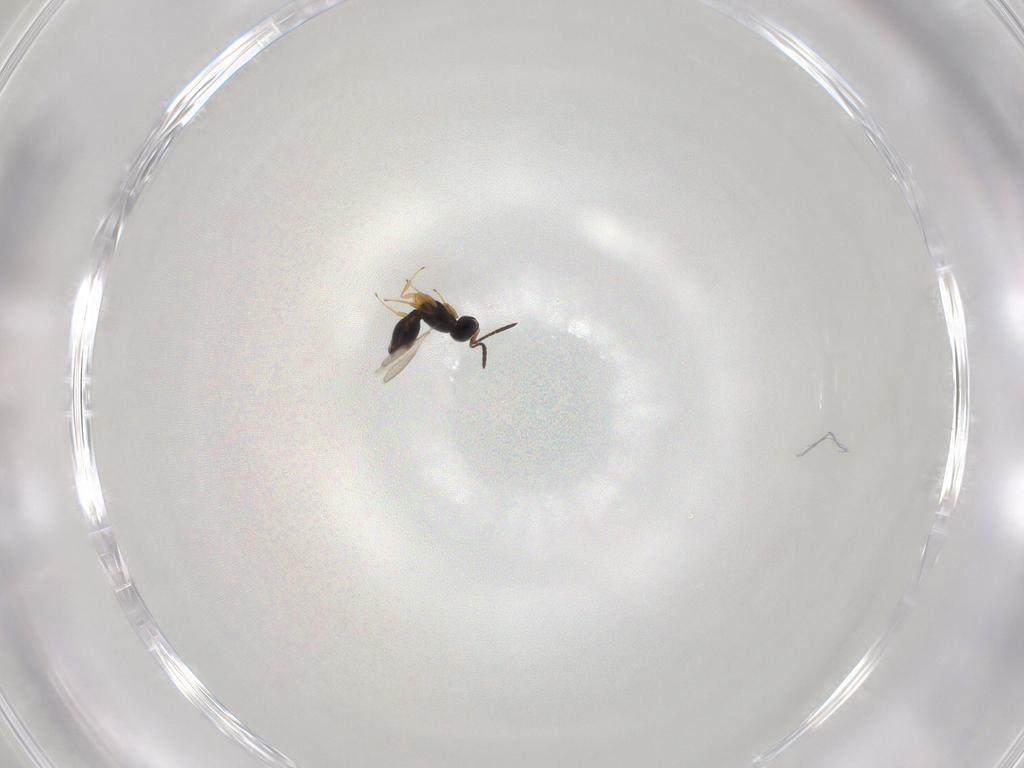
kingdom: Animalia
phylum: Arthropoda
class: Insecta
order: Hymenoptera
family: Scelionidae
